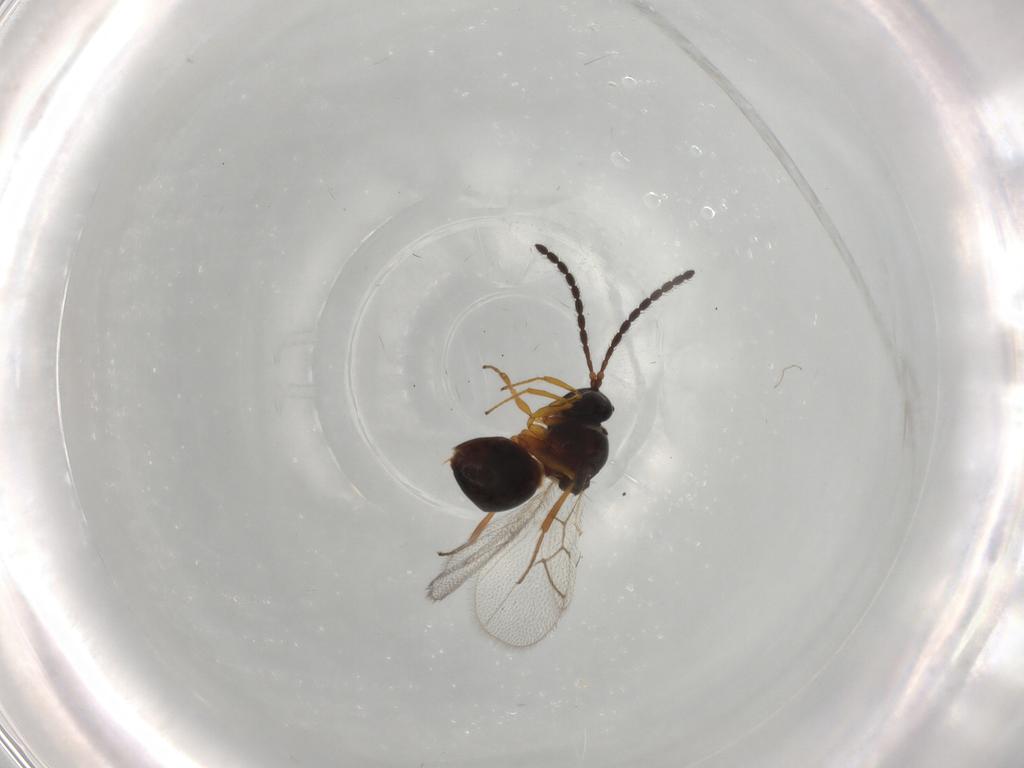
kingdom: Animalia
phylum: Arthropoda
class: Insecta
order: Hymenoptera
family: Figitidae
